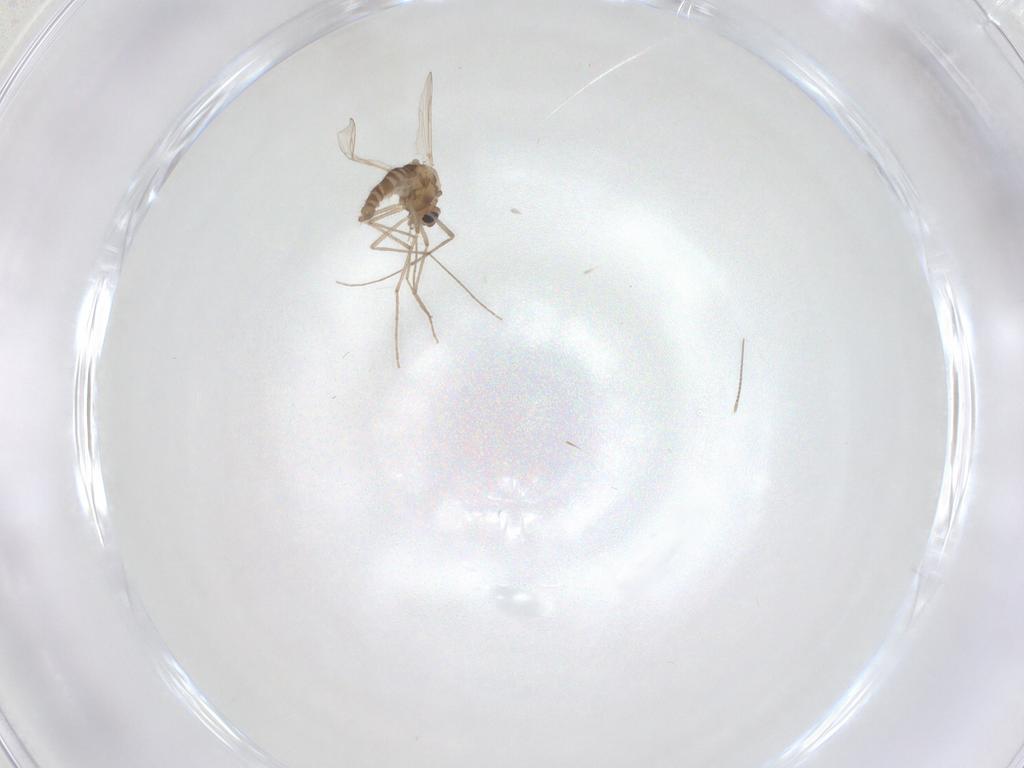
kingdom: Animalia
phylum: Arthropoda
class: Insecta
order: Diptera
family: Chironomidae
